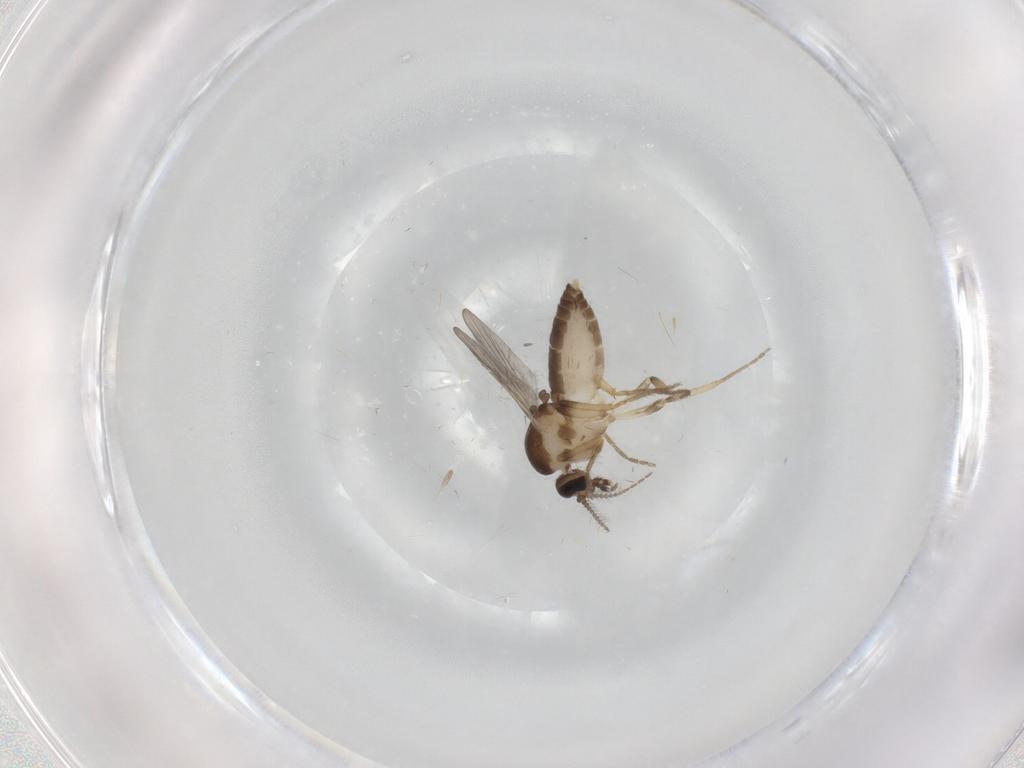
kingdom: Animalia
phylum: Arthropoda
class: Insecta
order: Diptera
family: Ceratopogonidae
